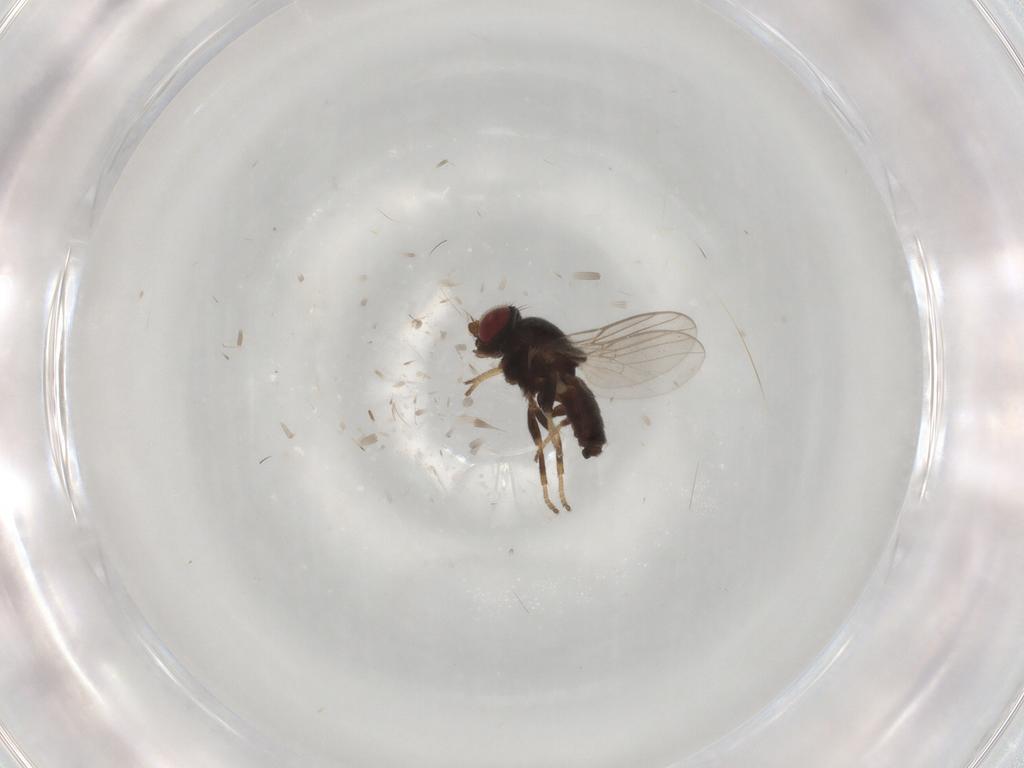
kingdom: Animalia
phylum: Arthropoda
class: Insecta
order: Diptera
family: Chloropidae
